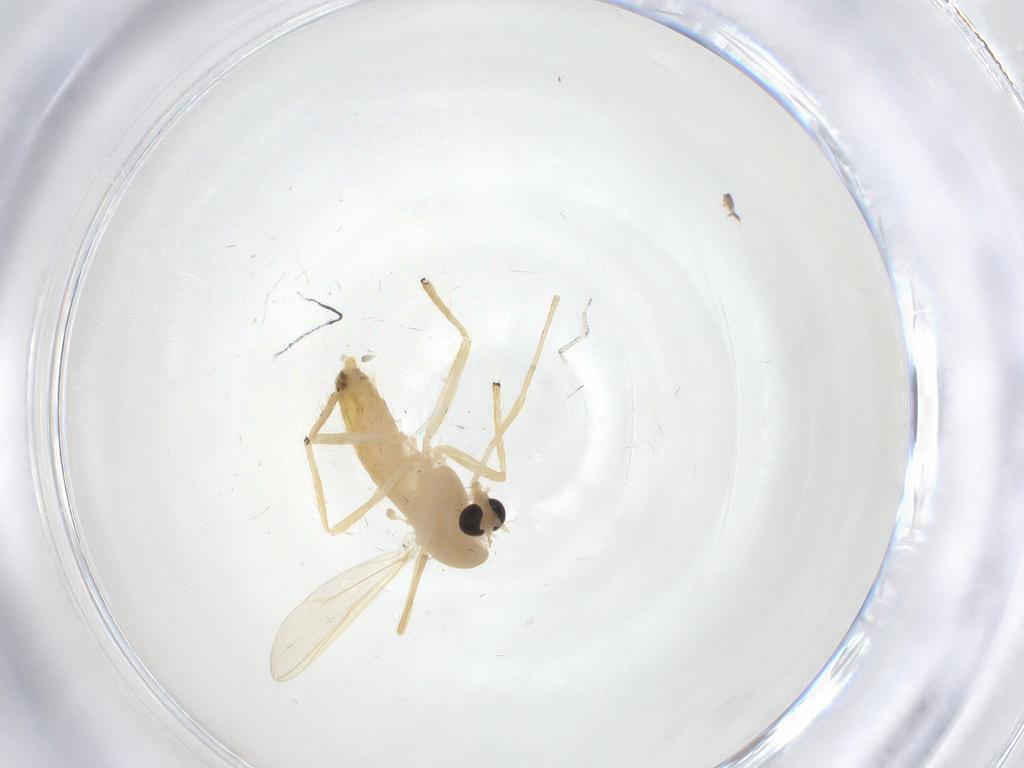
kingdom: Animalia
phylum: Arthropoda
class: Insecta
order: Diptera
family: Chironomidae
